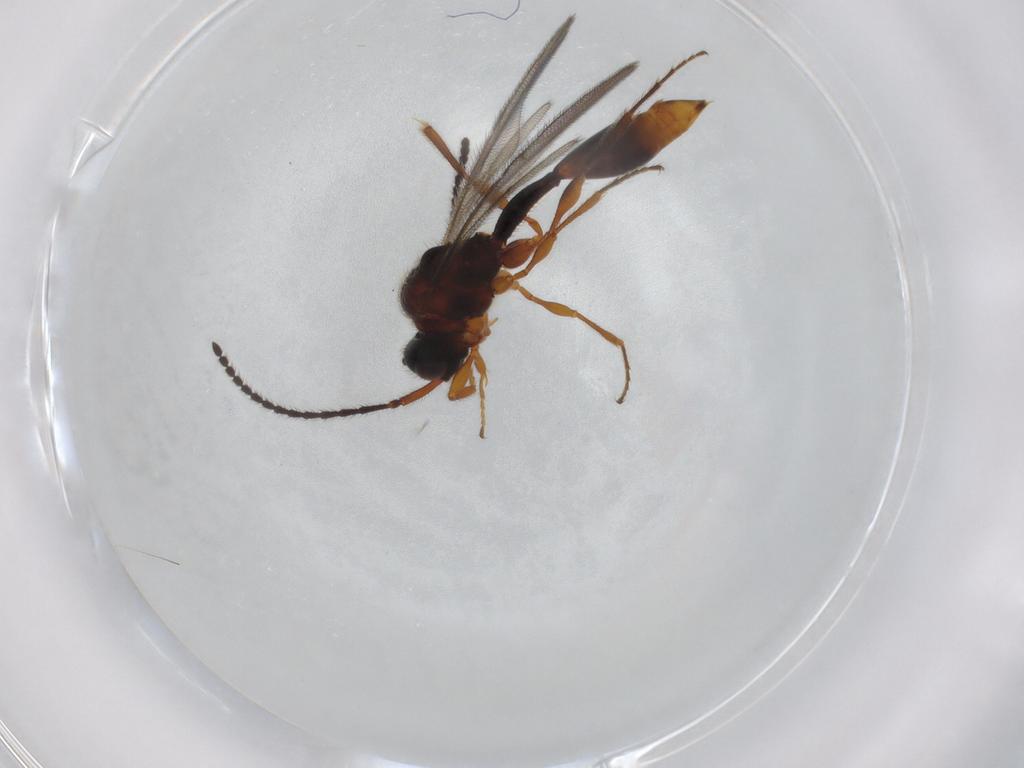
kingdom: Animalia
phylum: Arthropoda
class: Insecta
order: Hymenoptera
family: Diapriidae
